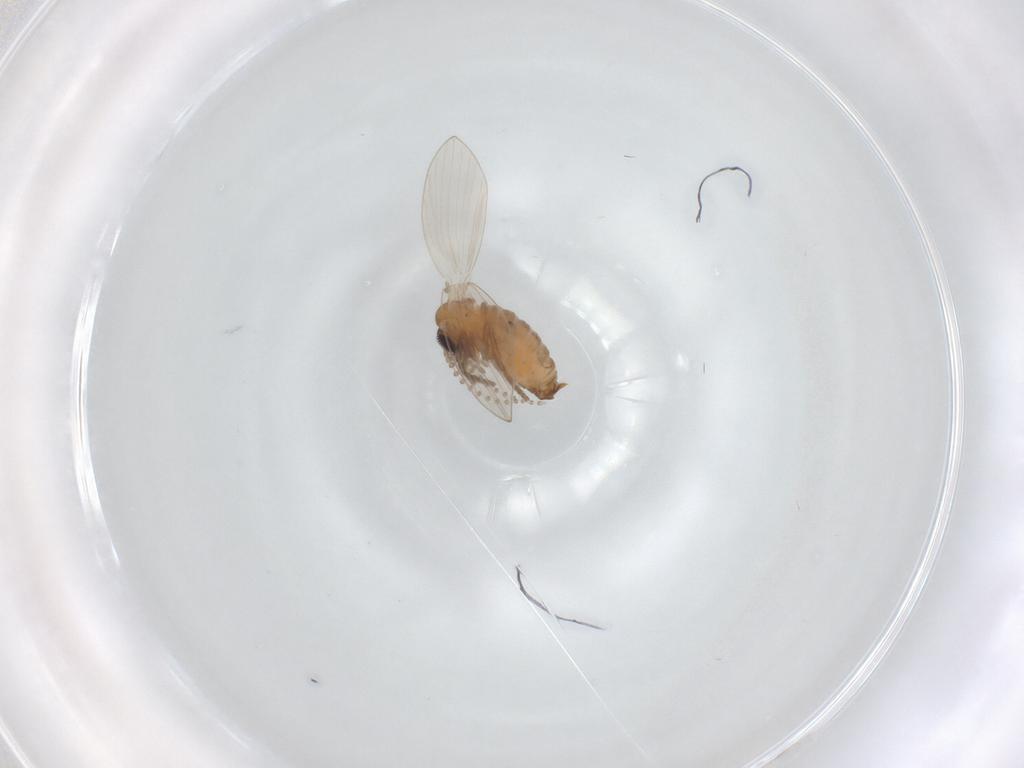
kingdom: Animalia
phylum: Arthropoda
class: Insecta
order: Diptera
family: Psychodidae
